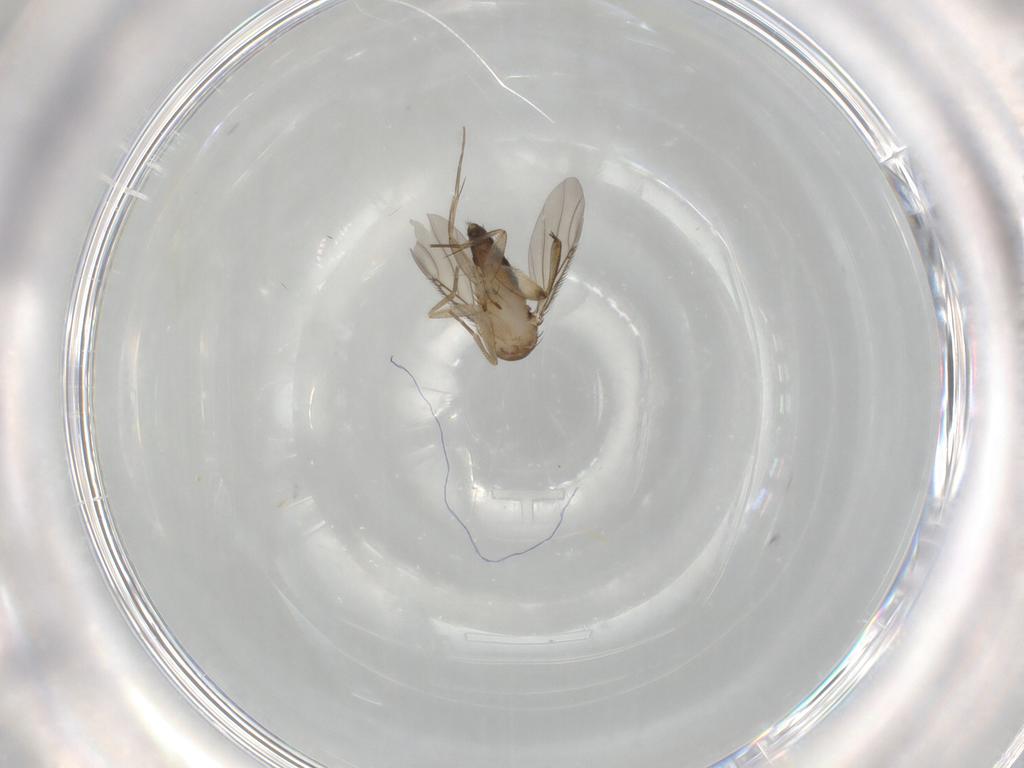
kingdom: Animalia
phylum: Arthropoda
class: Insecta
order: Diptera
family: Phoridae
